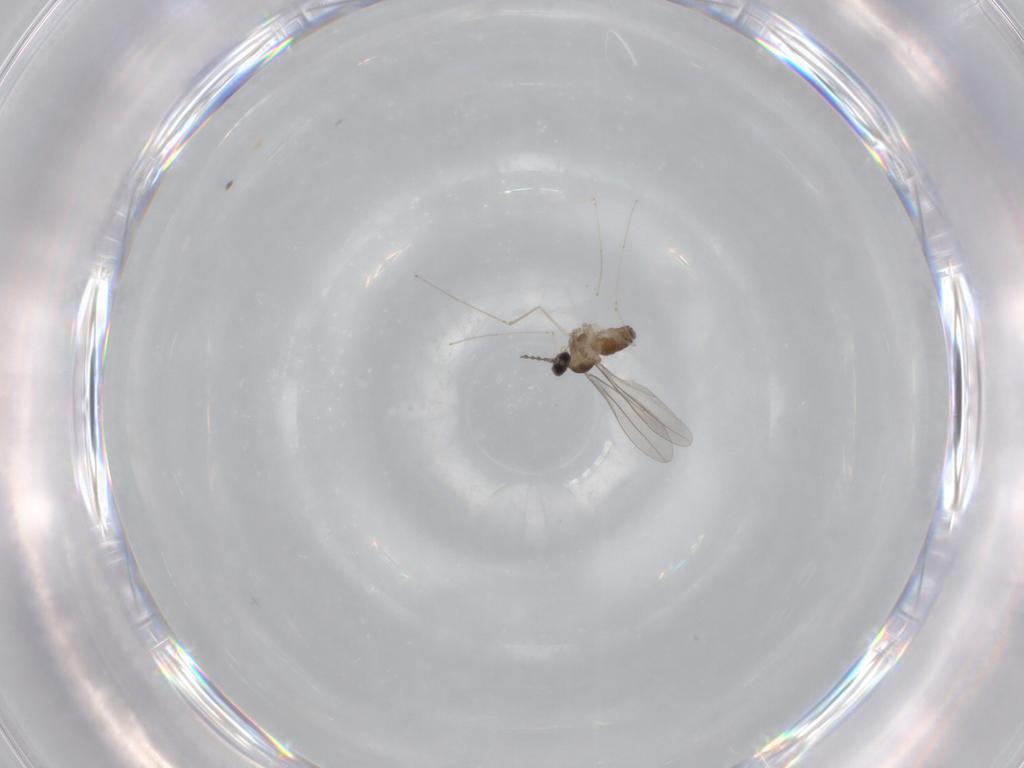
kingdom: Animalia
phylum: Arthropoda
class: Insecta
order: Diptera
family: Cecidomyiidae
